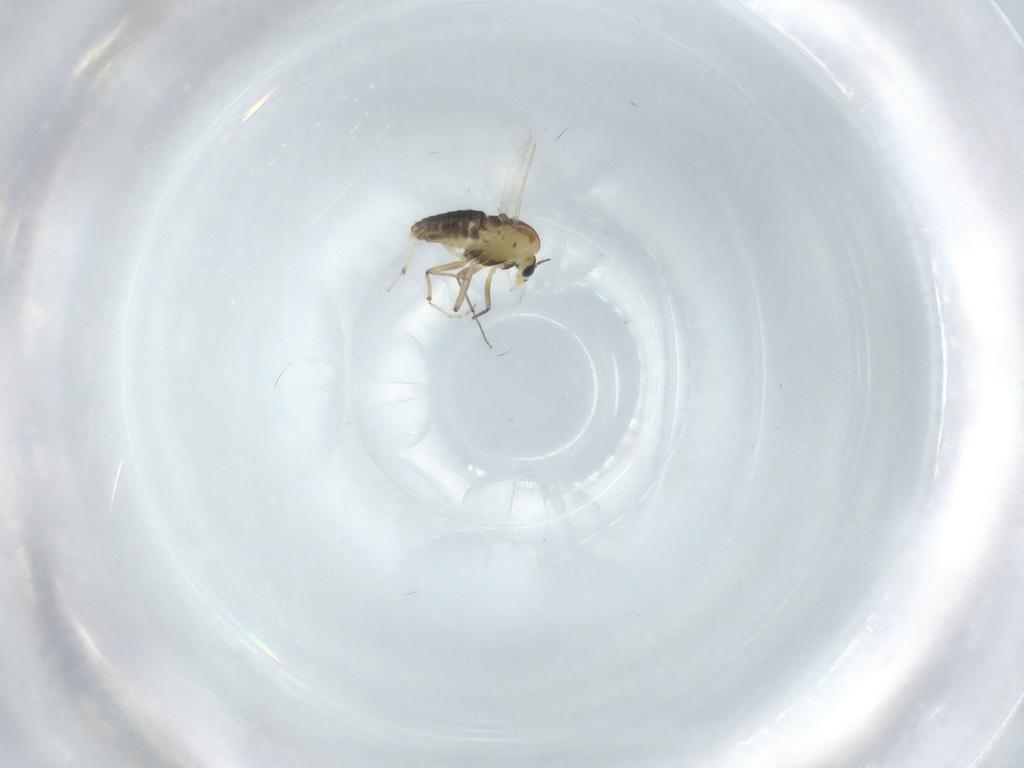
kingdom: Animalia
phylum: Arthropoda
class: Insecta
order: Diptera
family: Chironomidae
